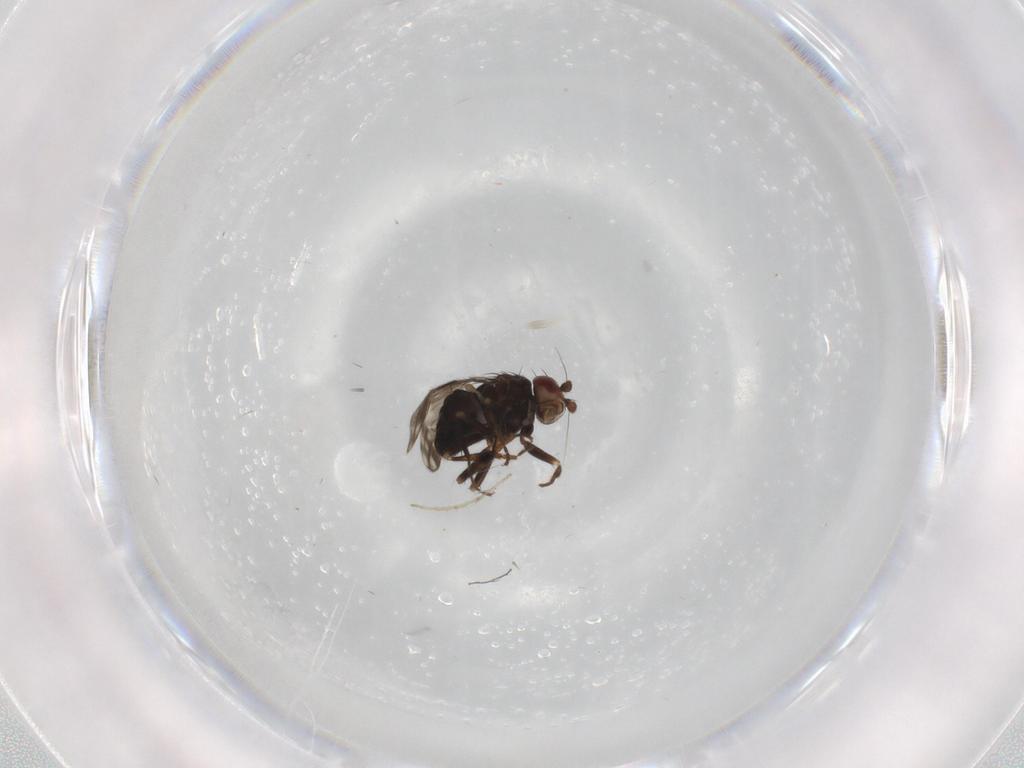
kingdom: Animalia
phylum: Arthropoda
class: Insecta
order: Diptera
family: Sphaeroceridae
